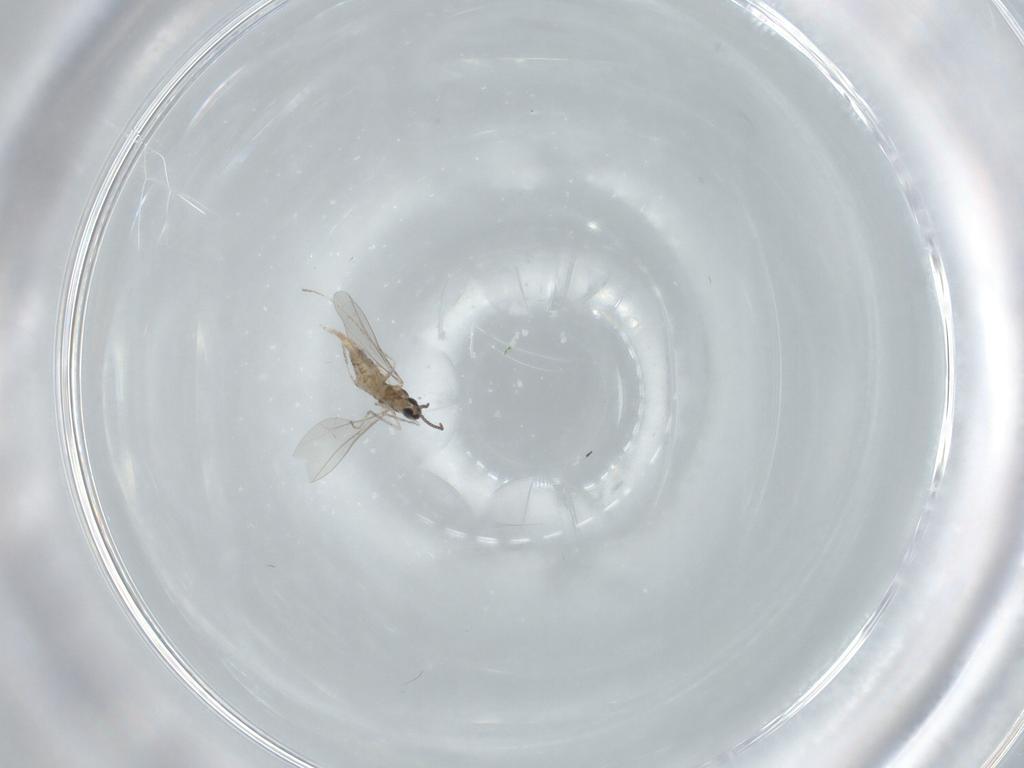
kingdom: Animalia
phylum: Arthropoda
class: Insecta
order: Diptera
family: Cecidomyiidae
